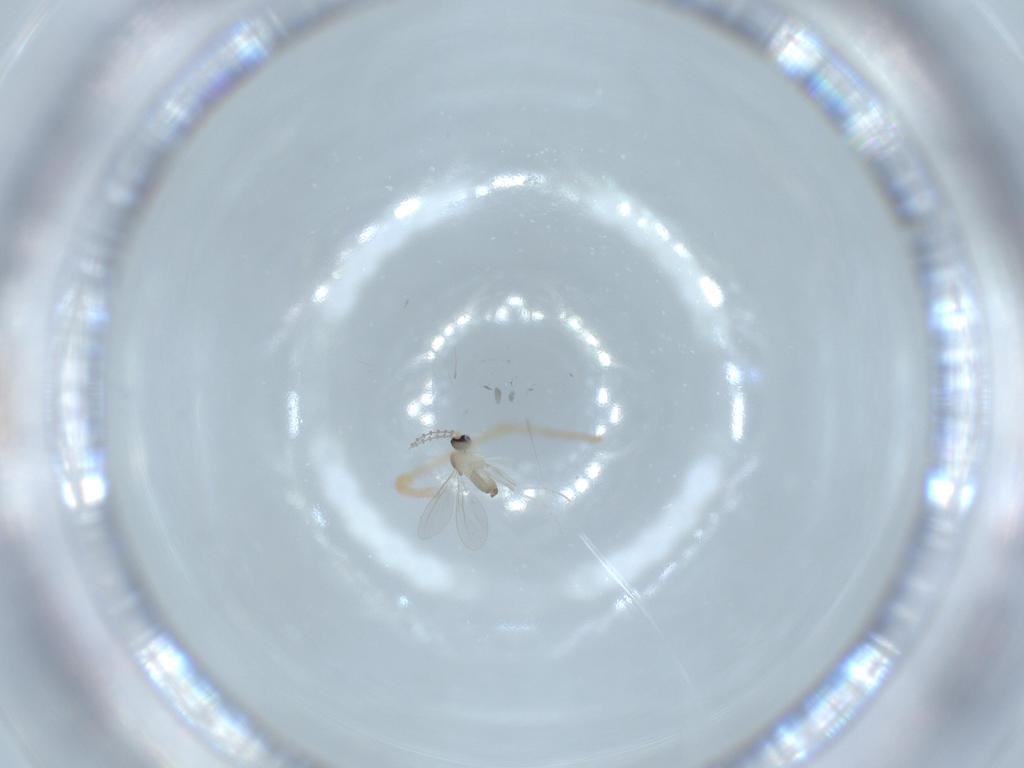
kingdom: Animalia
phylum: Arthropoda
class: Insecta
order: Diptera
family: Cecidomyiidae
